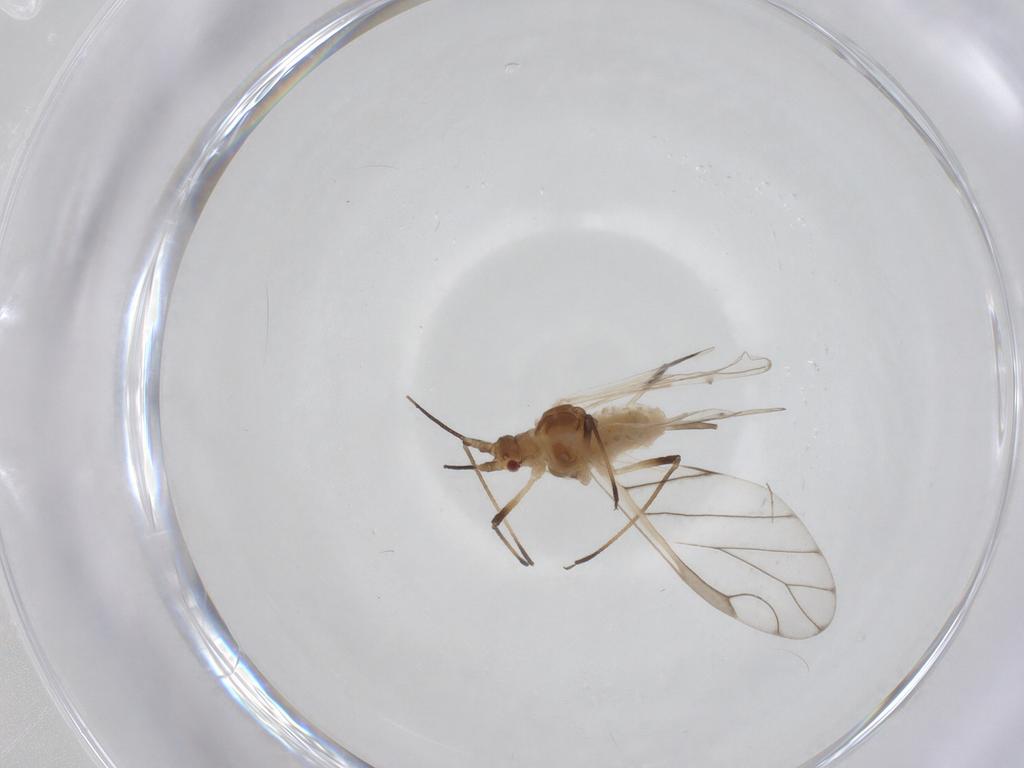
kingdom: Animalia
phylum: Arthropoda
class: Insecta
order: Hemiptera
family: Aphididae
